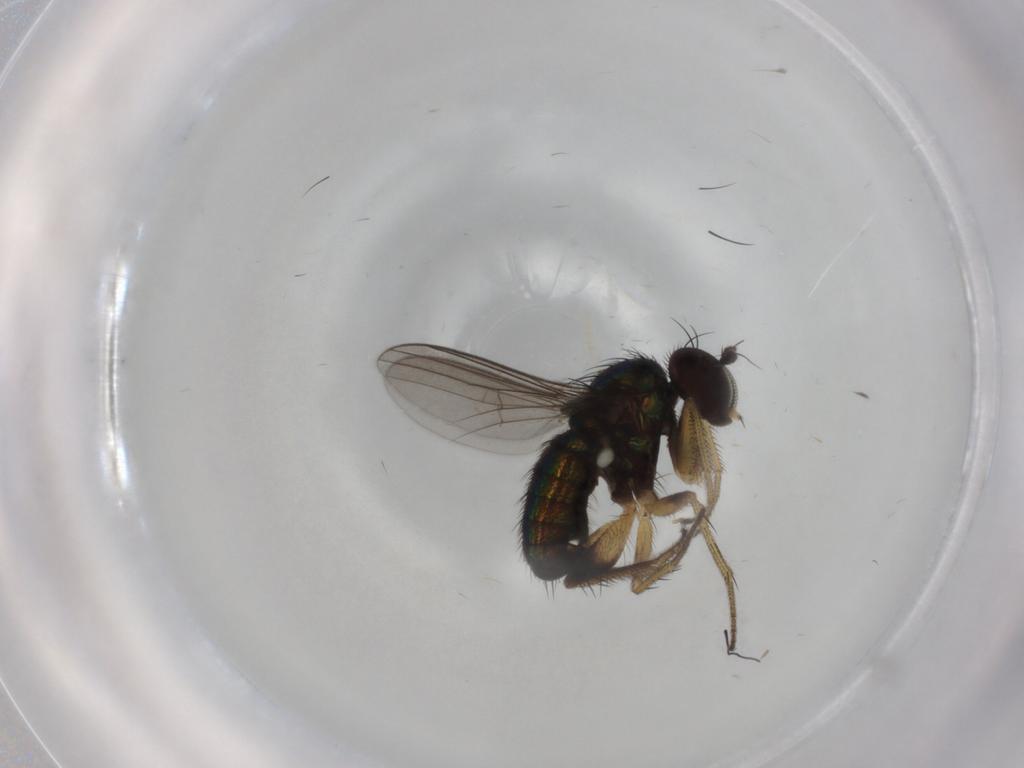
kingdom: Animalia
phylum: Arthropoda
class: Insecta
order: Diptera
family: Dolichopodidae
